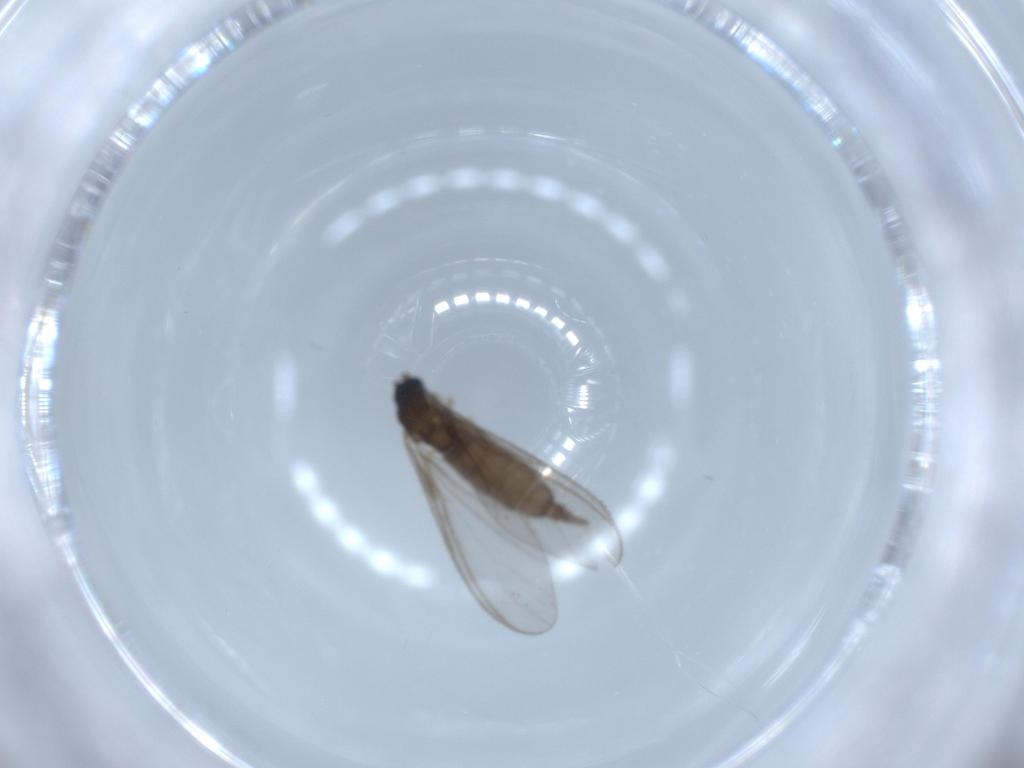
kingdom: Animalia
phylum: Arthropoda
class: Insecta
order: Diptera
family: Sciaridae
